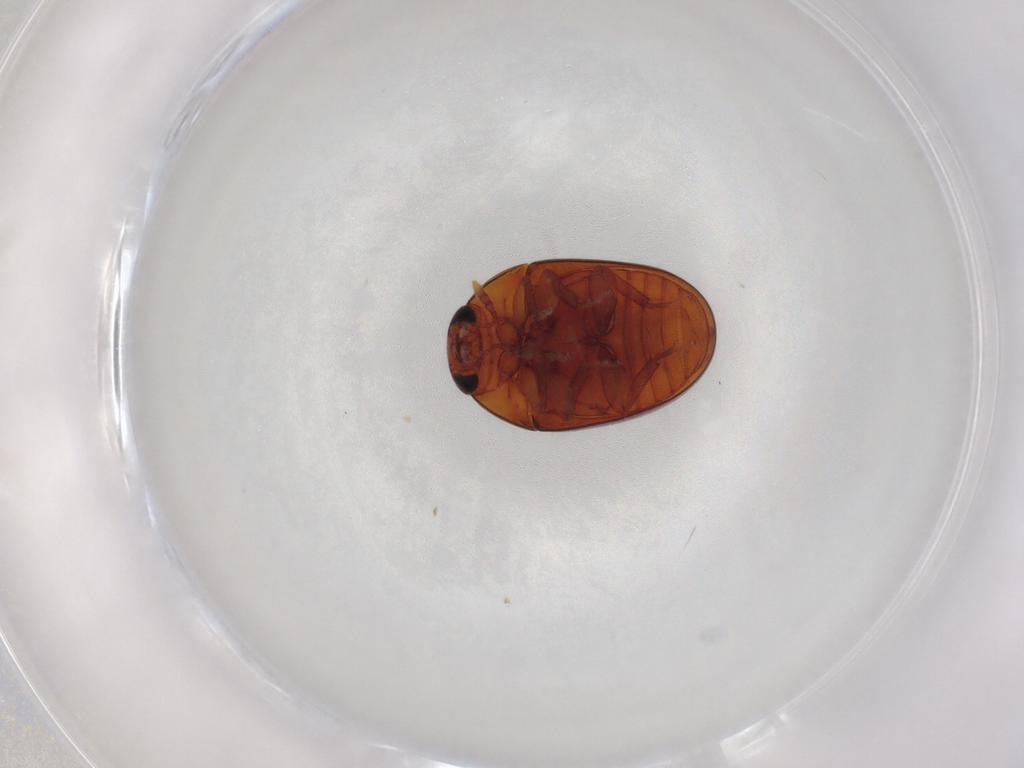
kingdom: Animalia
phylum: Arthropoda
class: Insecta
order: Coleoptera
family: Phalacridae
